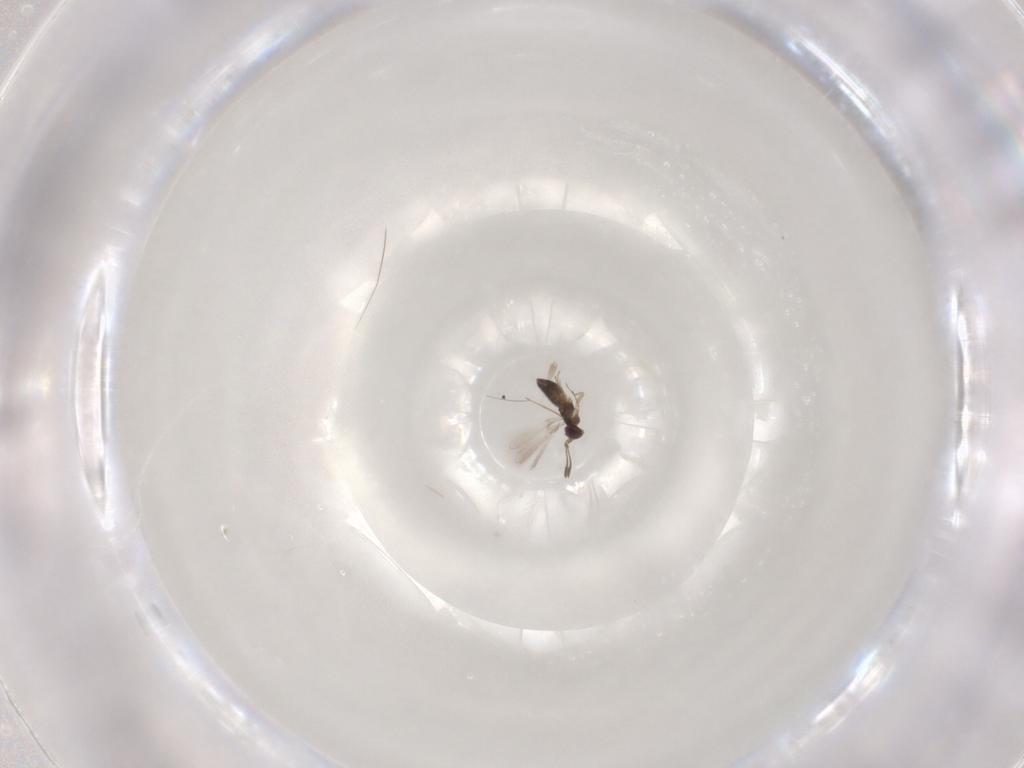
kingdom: Animalia
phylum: Arthropoda
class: Insecta
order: Hymenoptera
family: Mymaridae
